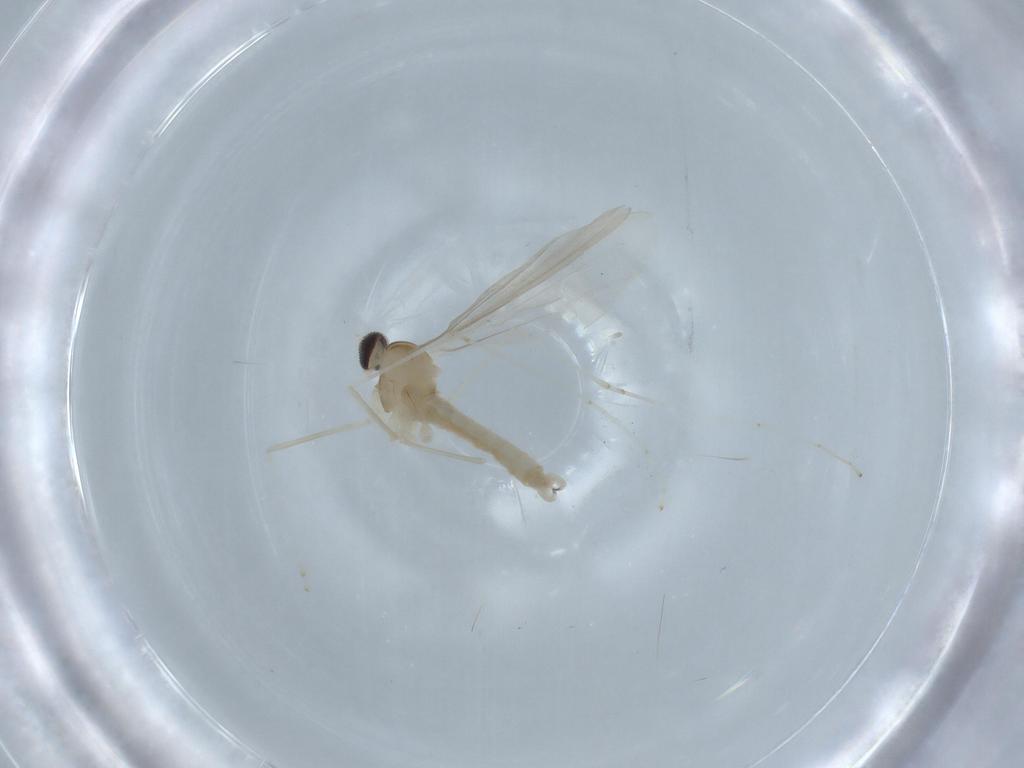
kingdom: Animalia
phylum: Arthropoda
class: Insecta
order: Diptera
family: Cecidomyiidae
